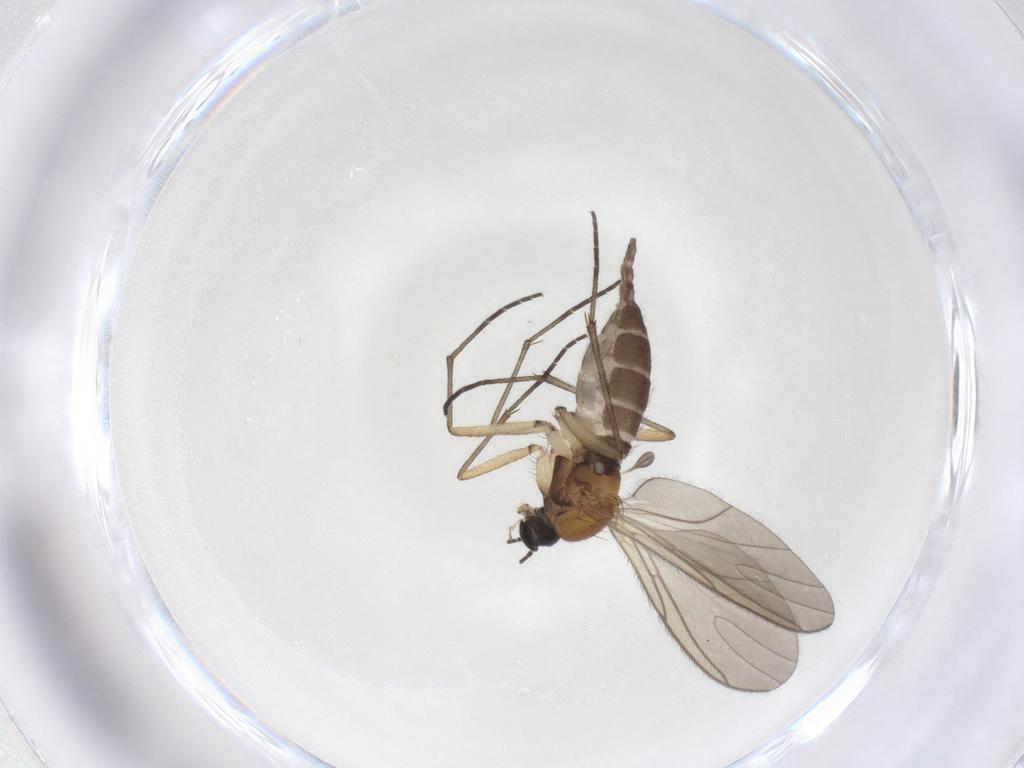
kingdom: Animalia
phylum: Arthropoda
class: Insecta
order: Diptera
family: Sciaridae
